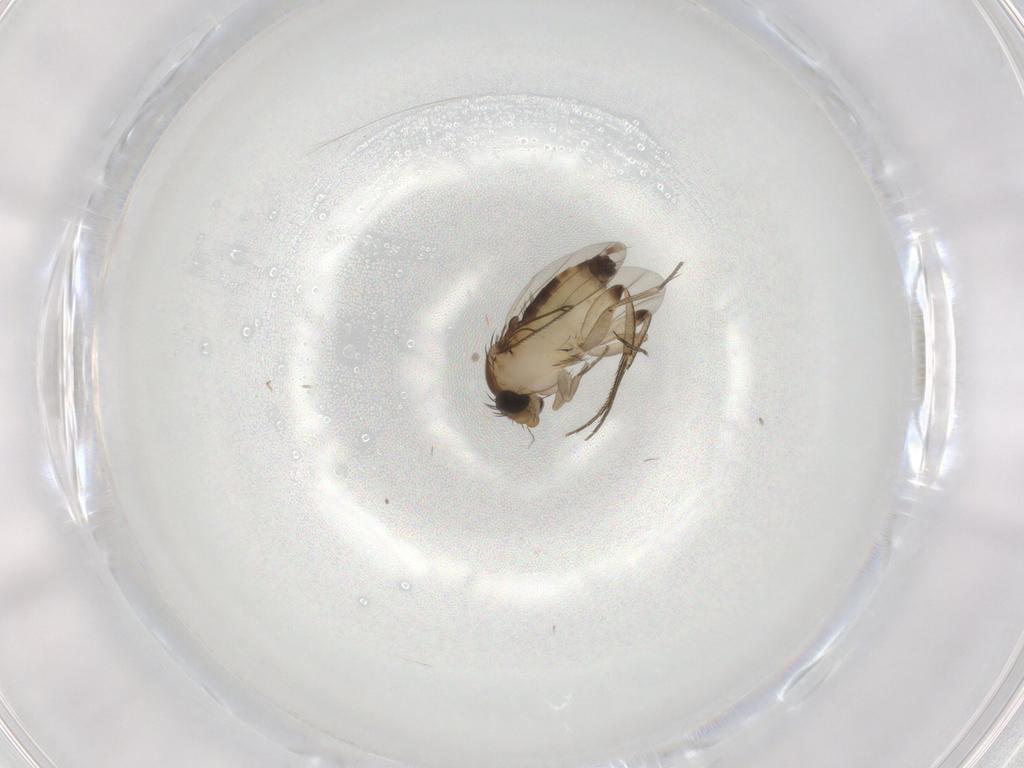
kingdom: Animalia
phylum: Arthropoda
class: Insecta
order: Diptera
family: Phoridae
